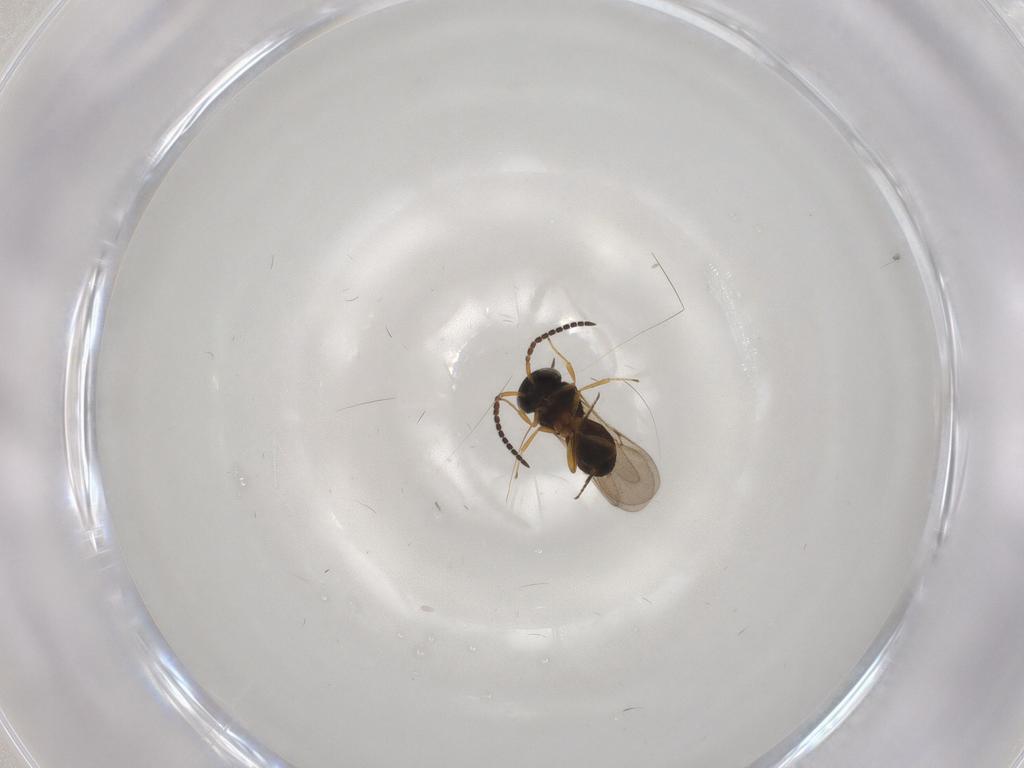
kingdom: Animalia
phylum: Arthropoda
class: Insecta
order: Hymenoptera
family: Scelionidae
